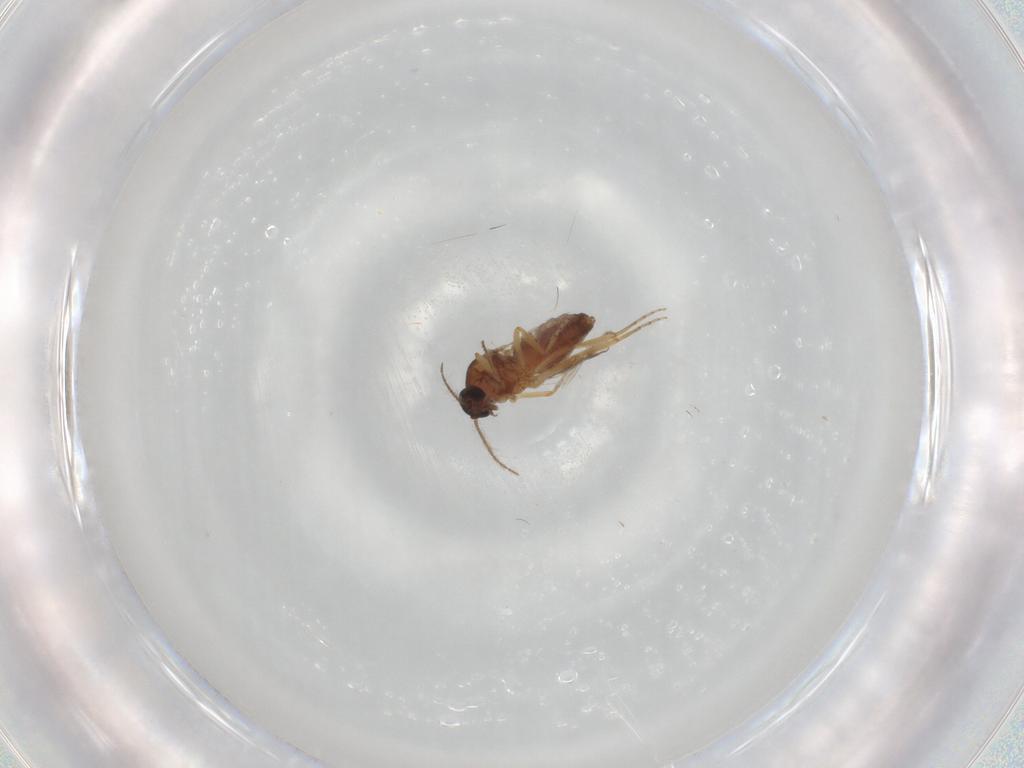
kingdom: Animalia
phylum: Arthropoda
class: Insecta
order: Diptera
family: Ceratopogonidae
